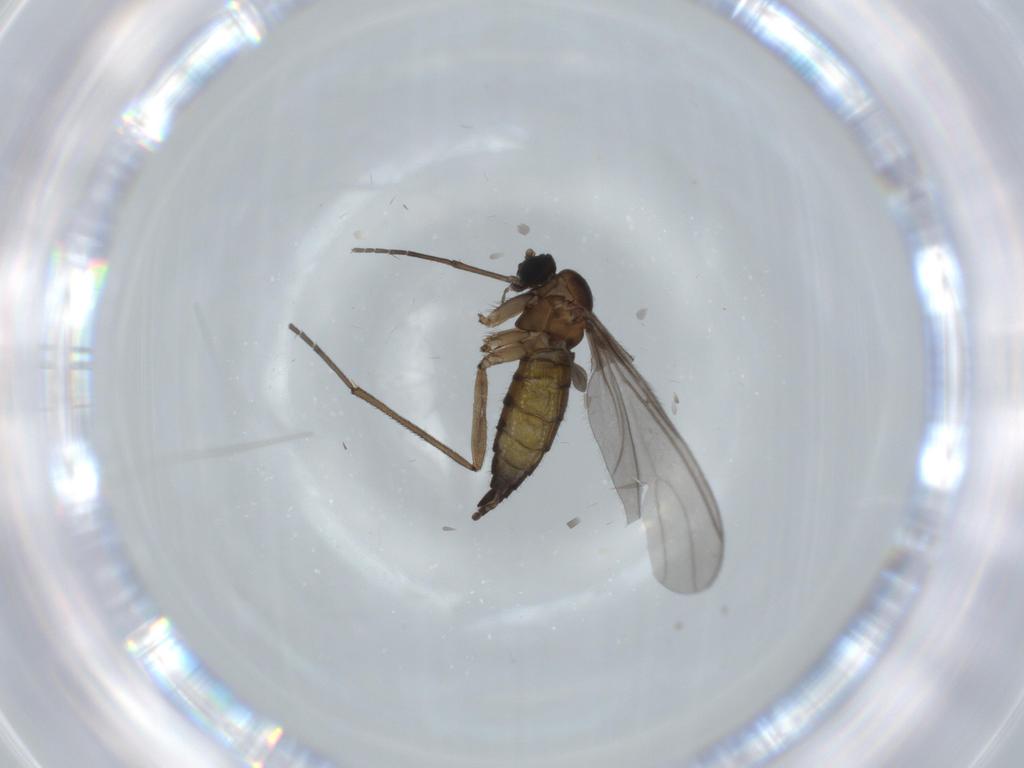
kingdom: Animalia
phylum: Arthropoda
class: Insecta
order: Diptera
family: Sciaridae
